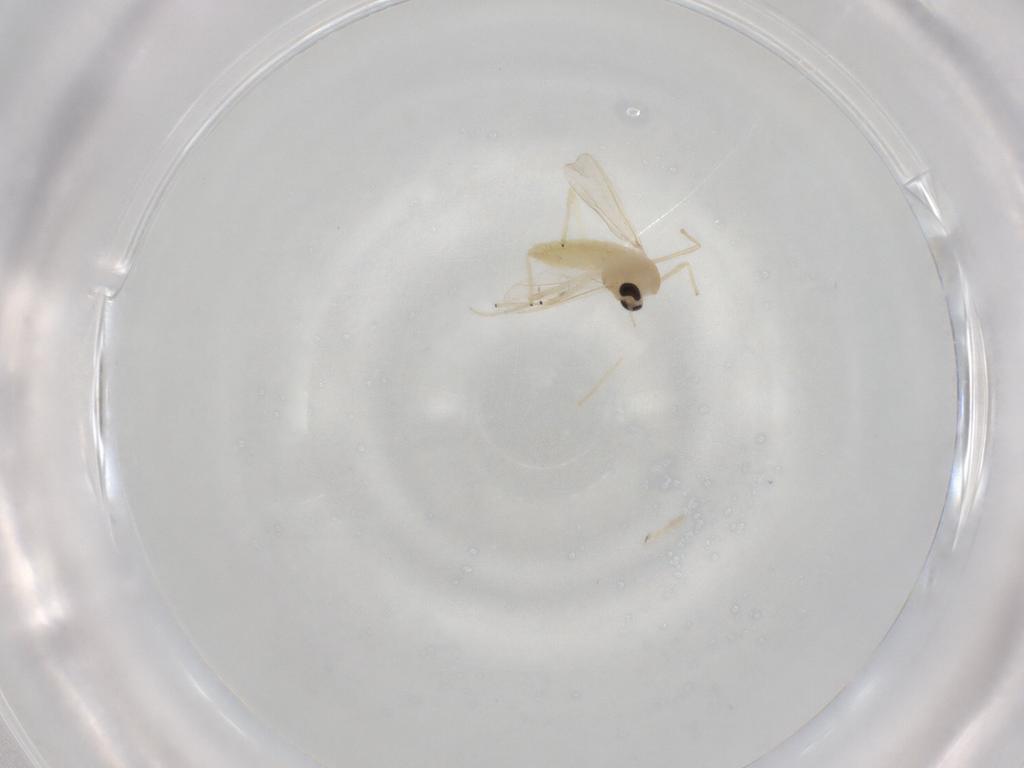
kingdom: Animalia
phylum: Arthropoda
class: Insecta
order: Diptera
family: Chironomidae
